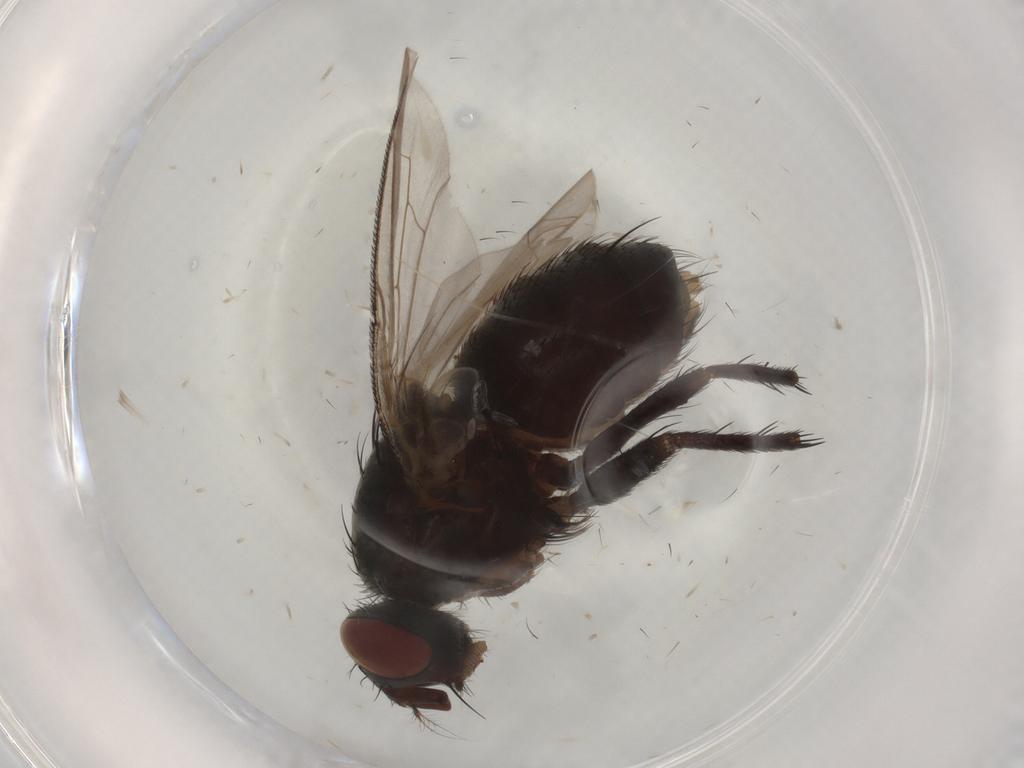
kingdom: Animalia
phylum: Arthropoda
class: Insecta
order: Diptera
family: Sarcophagidae
